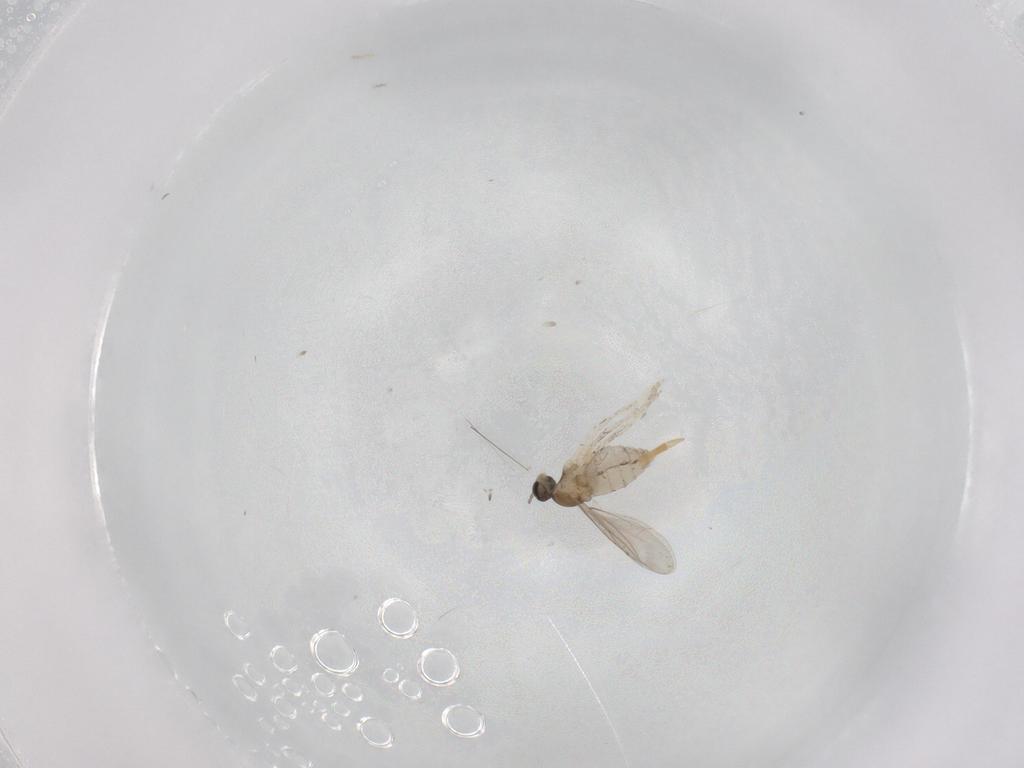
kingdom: Animalia
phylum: Arthropoda
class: Insecta
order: Diptera
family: Cecidomyiidae
